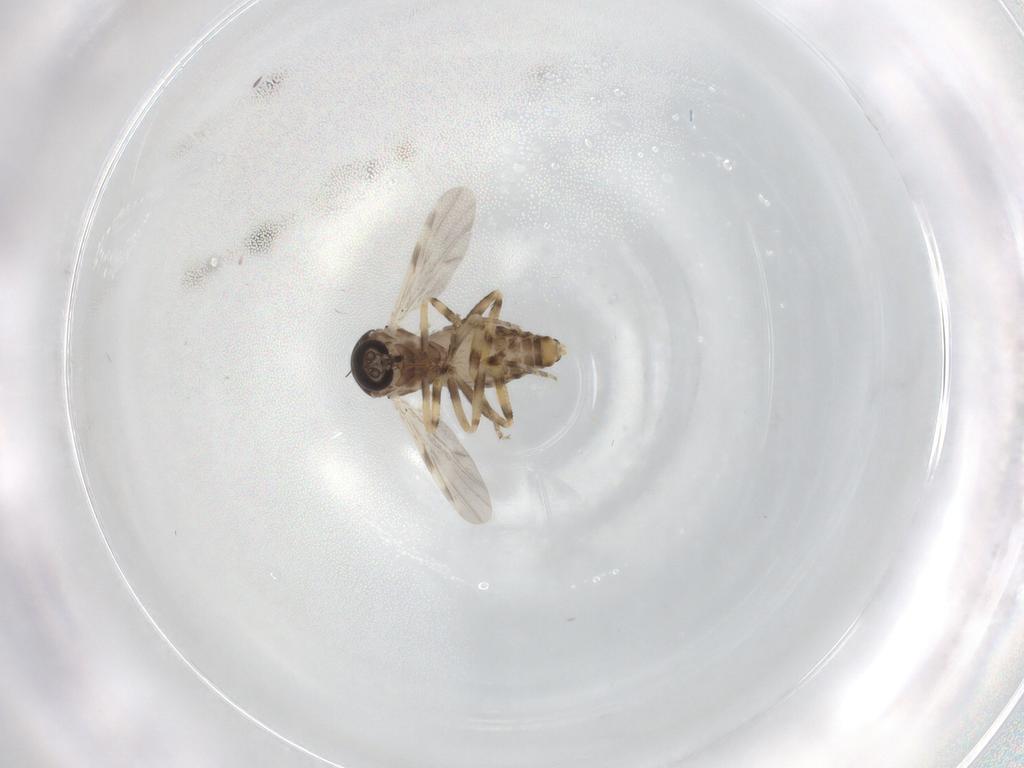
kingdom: Animalia
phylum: Arthropoda
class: Insecta
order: Diptera
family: Ceratopogonidae
